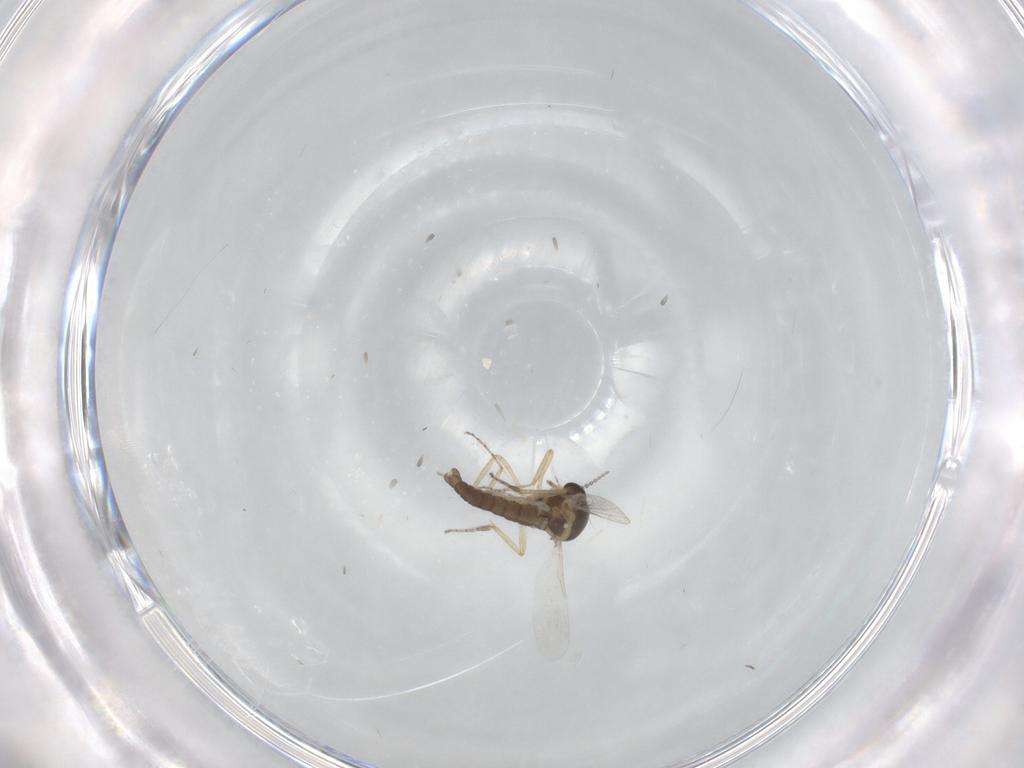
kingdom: Animalia
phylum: Arthropoda
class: Insecta
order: Diptera
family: Ceratopogonidae
